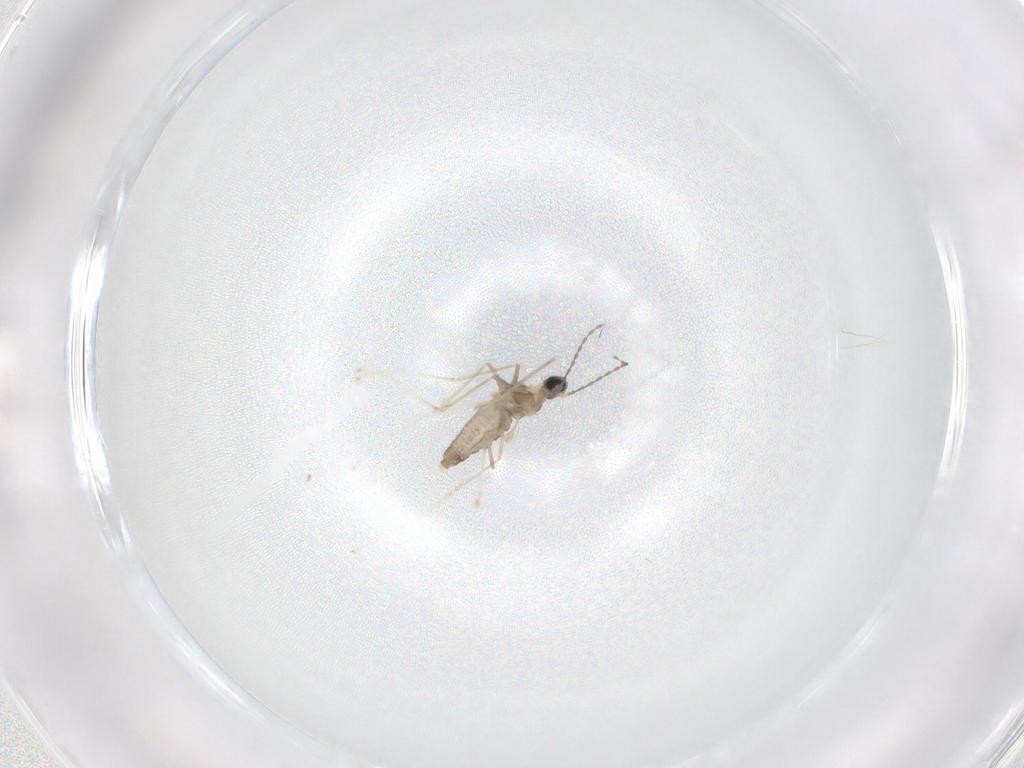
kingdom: Animalia
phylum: Arthropoda
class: Insecta
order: Diptera
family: Cecidomyiidae
